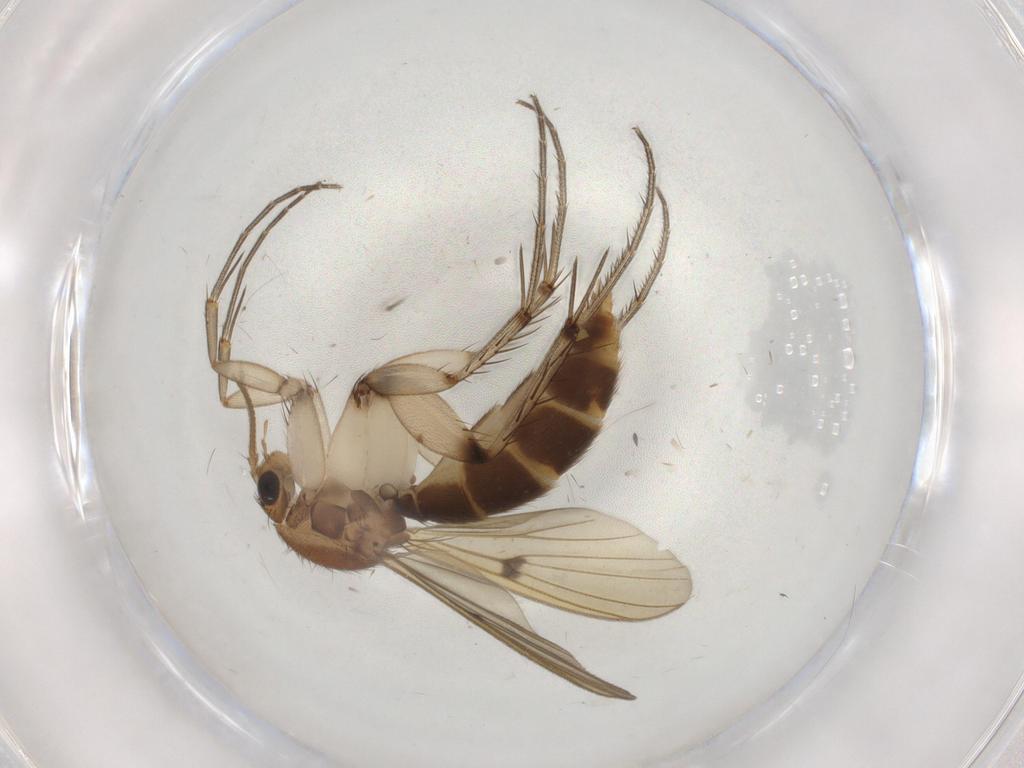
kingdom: Animalia
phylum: Arthropoda
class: Insecta
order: Diptera
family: Mycetophilidae
